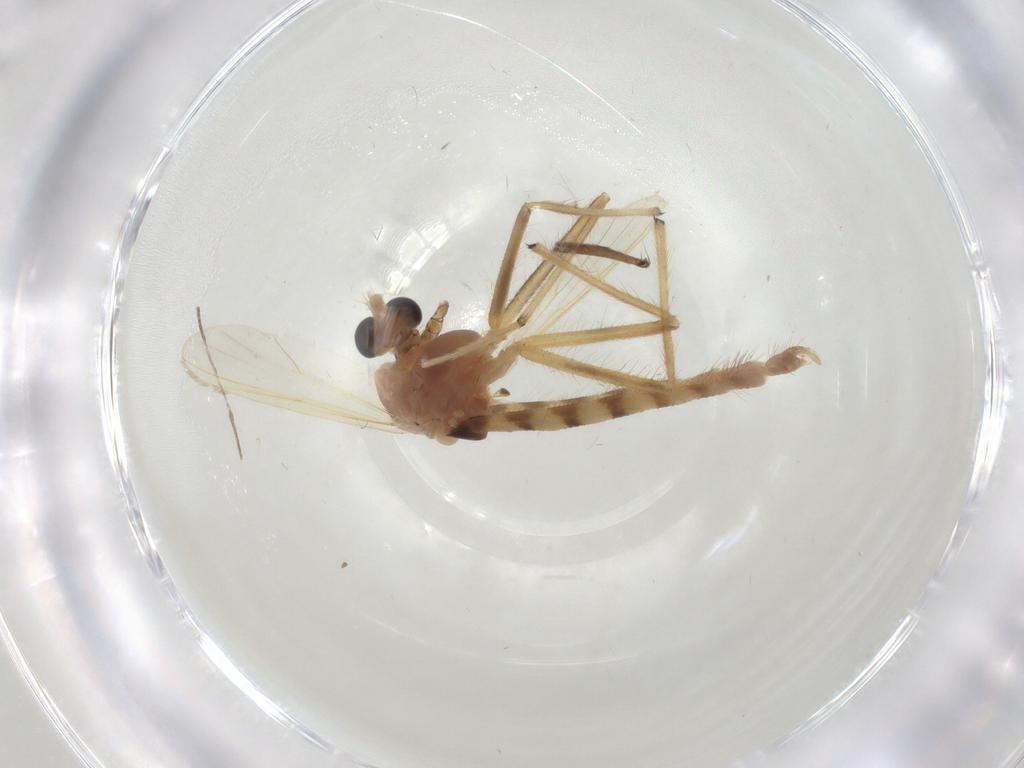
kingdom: Animalia
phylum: Arthropoda
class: Insecta
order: Diptera
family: Chironomidae
